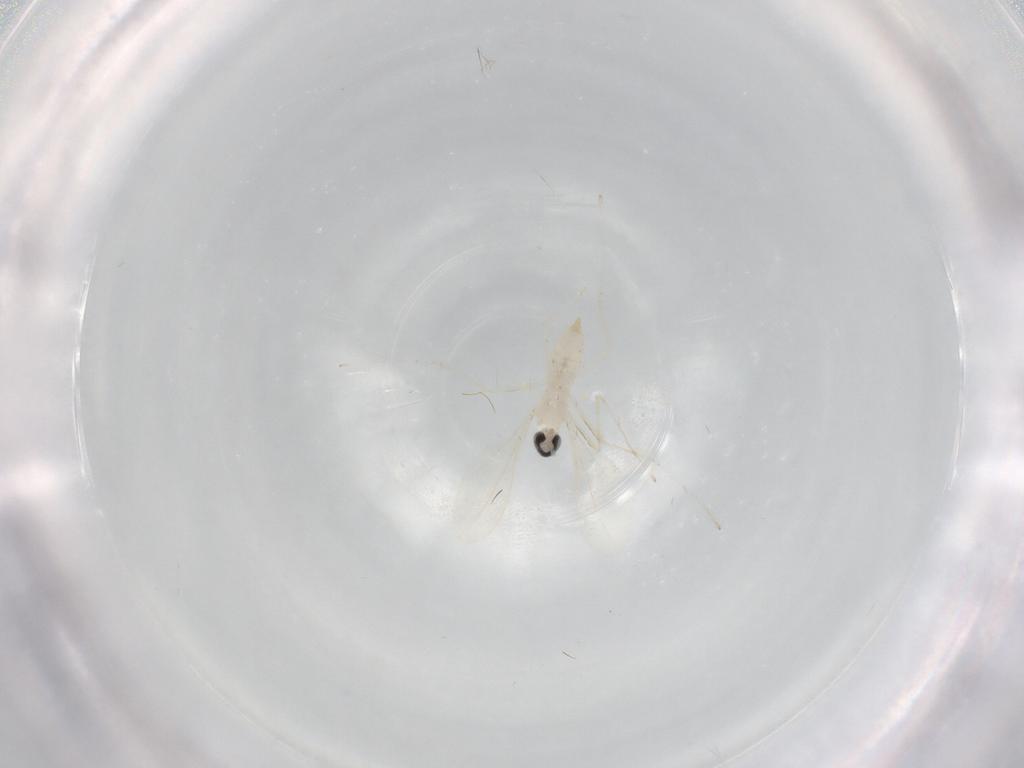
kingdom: Animalia
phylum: Arthropoda
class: Insecta
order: Diptera
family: Cecidomyiidae
